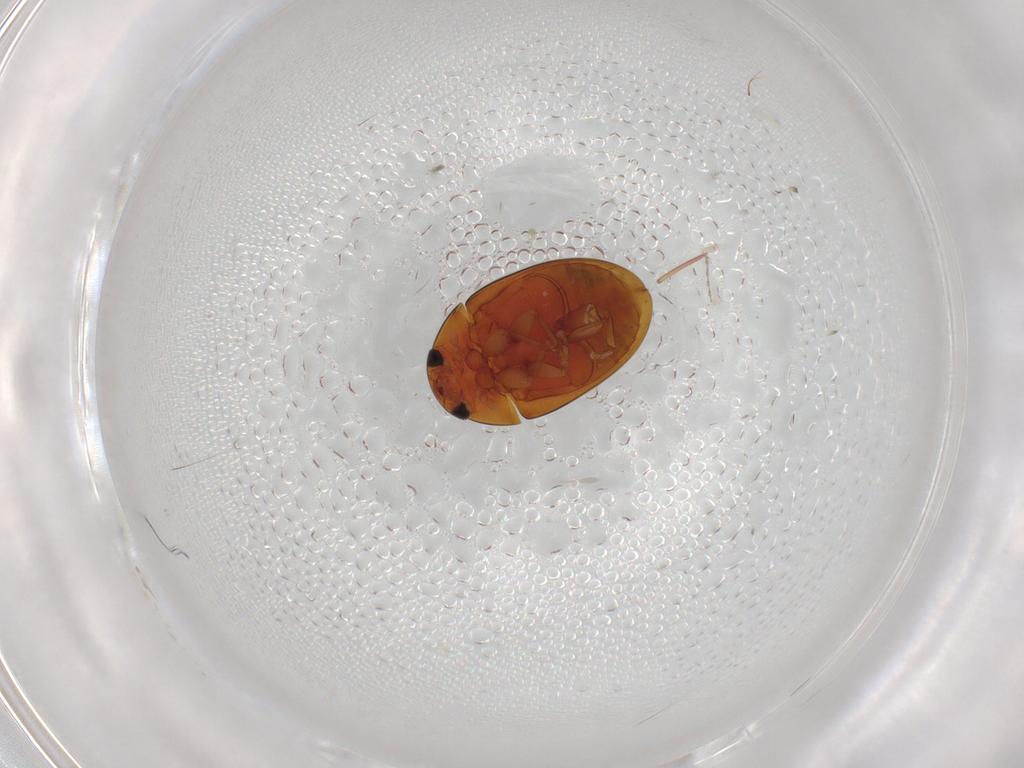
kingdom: Animalia
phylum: Arthropoda
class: Insecta
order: Coleoptera
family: Phalacridae
